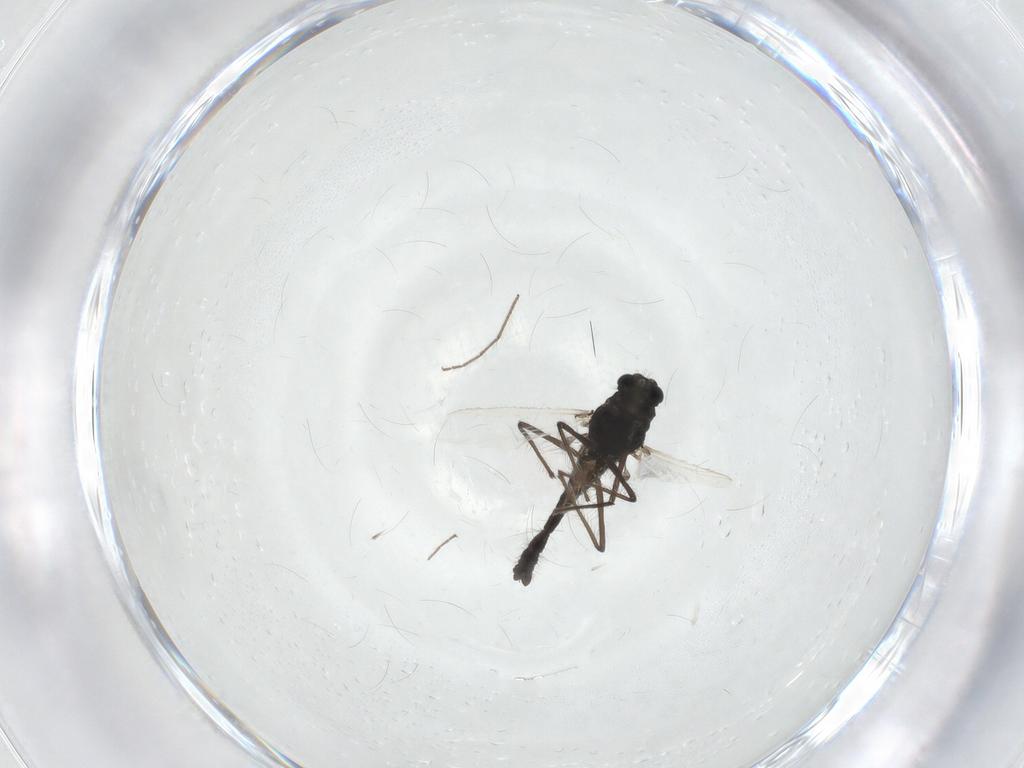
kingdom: Animalia
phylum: Arthropoda
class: Insecta
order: Diptera
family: Chironomidae
